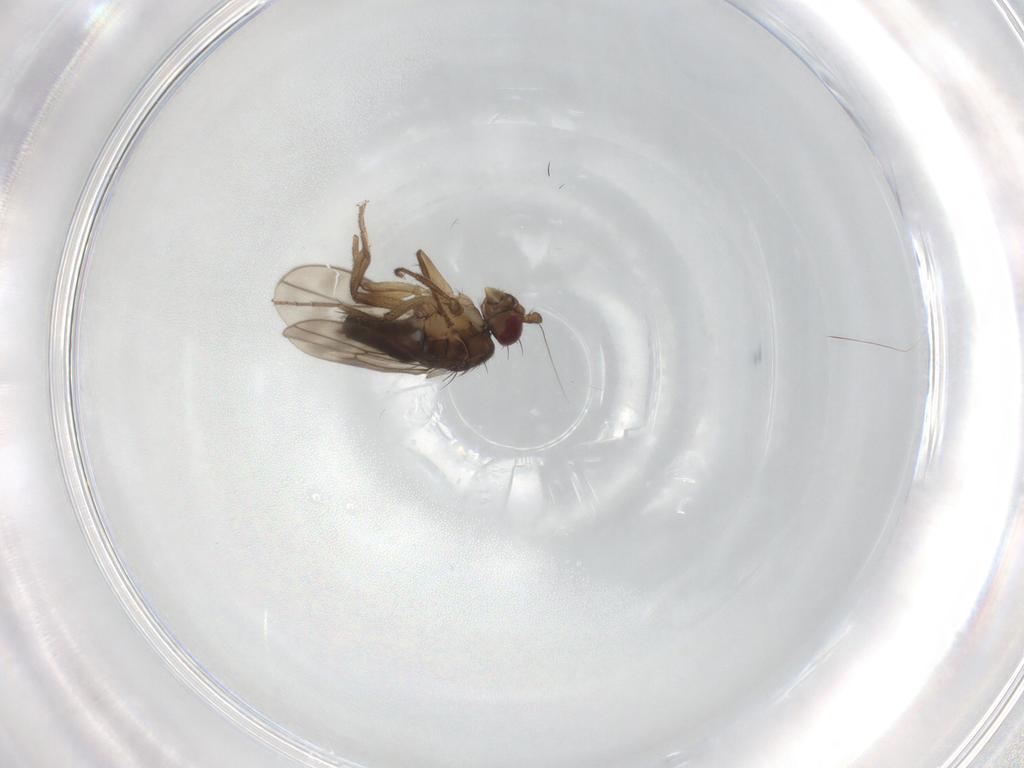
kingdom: Animalia
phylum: Arthropoda
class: Insecta
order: Diptera
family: Sphaeroceridae
